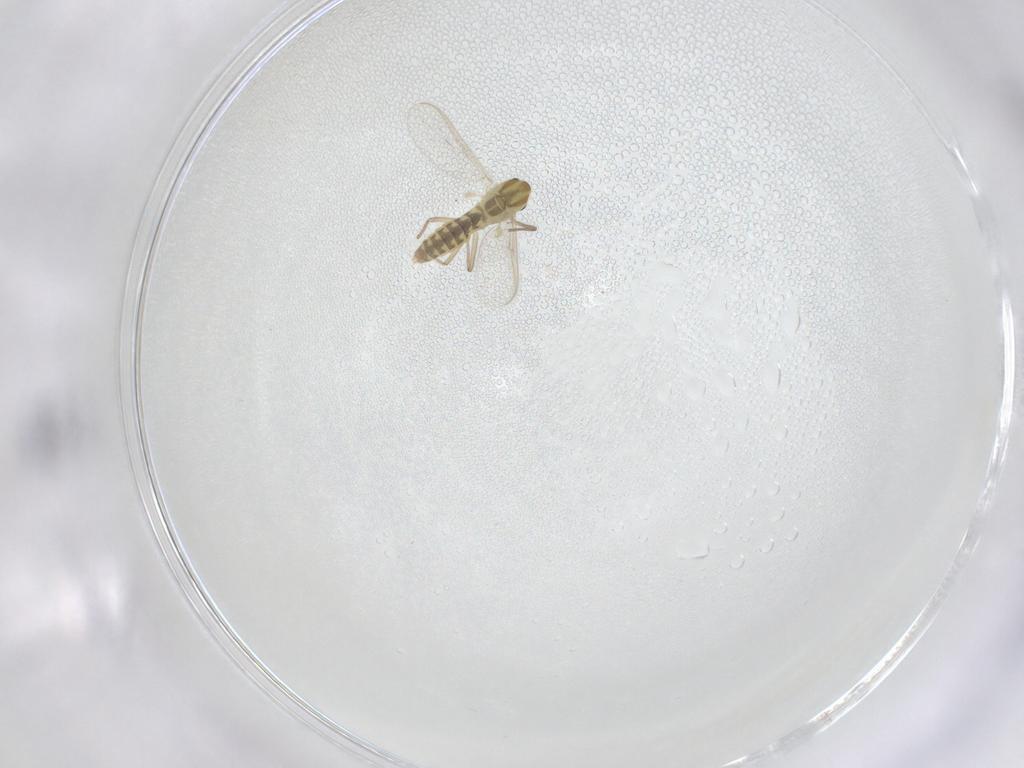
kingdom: Animalia
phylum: Arthropoda
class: Insecta
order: Diptera
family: Chironomidae
